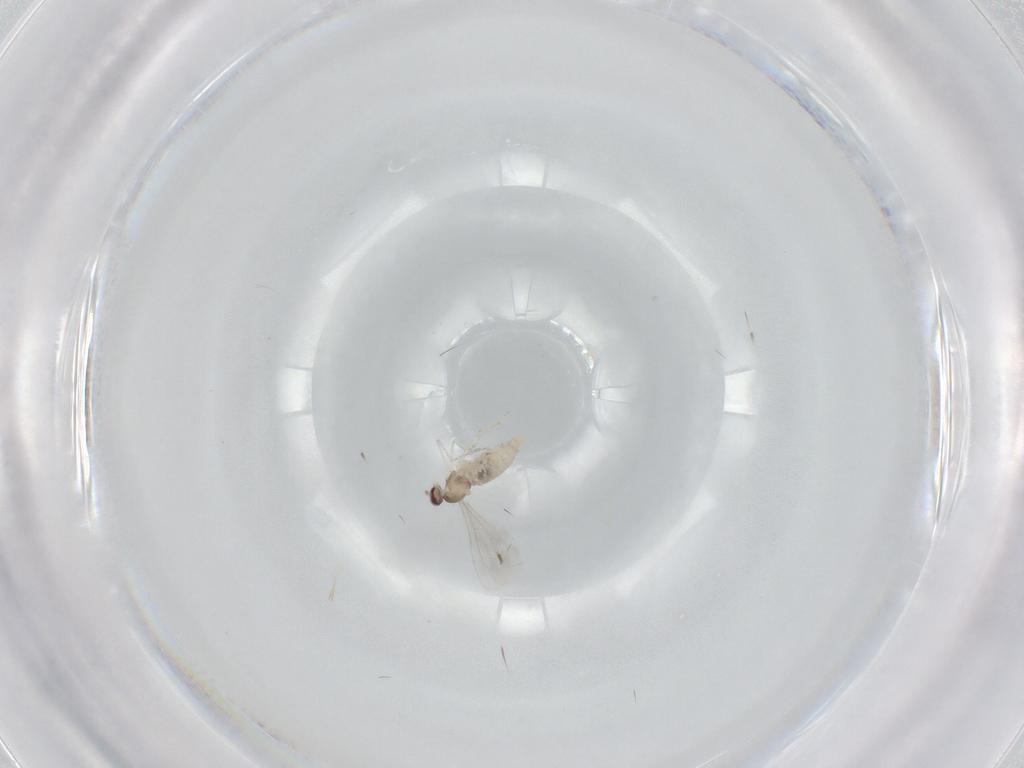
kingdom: Animalia
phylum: Arthropoda
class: Insecta
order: Diptera
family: Cecidomyiidae
